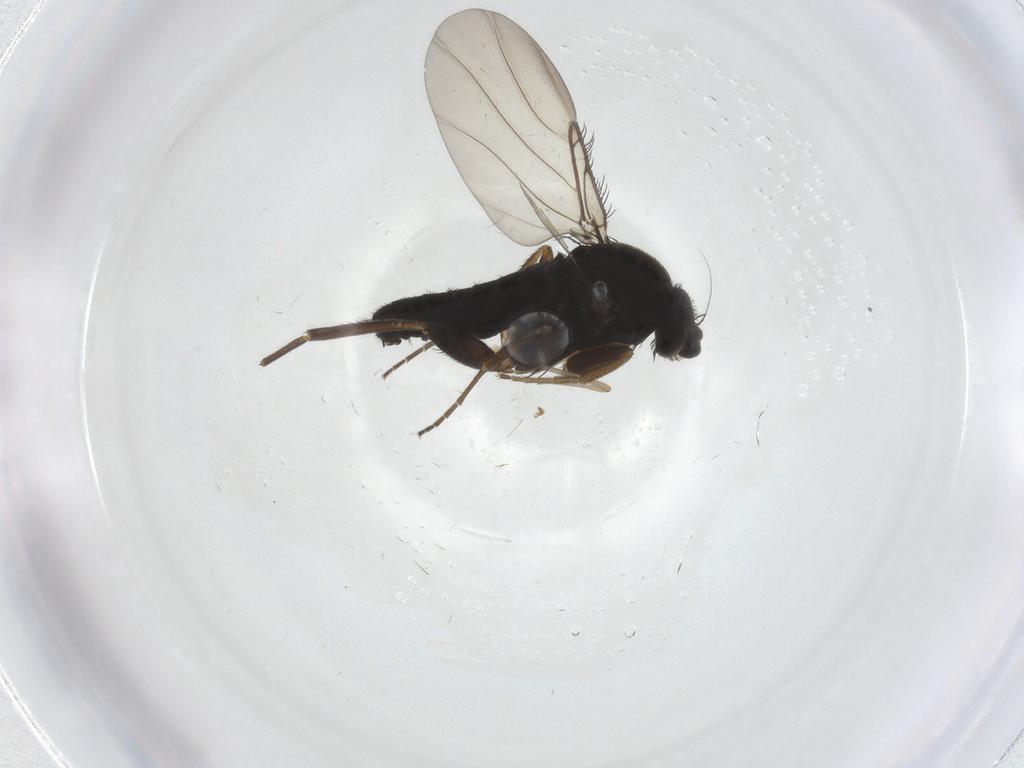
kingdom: Animalia
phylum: Arthropoda
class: Insecta
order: Diptera
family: Phoridae
